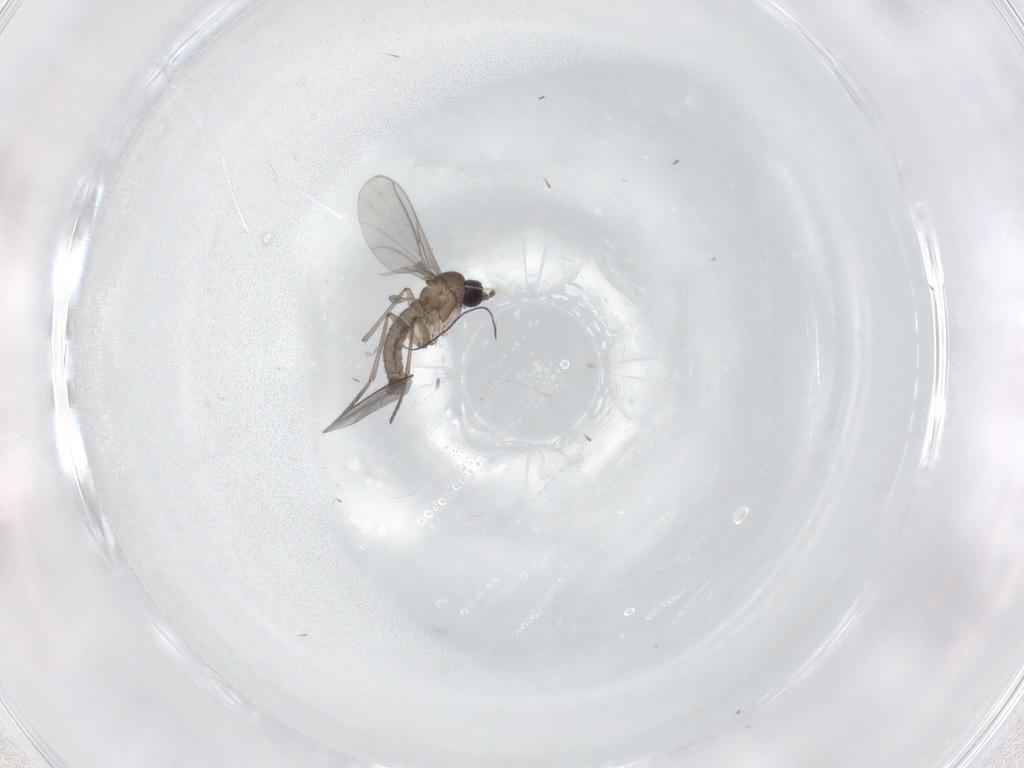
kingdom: Animalia
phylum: Arthropoda
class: Insecta
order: Diptera
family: Chironomidae
